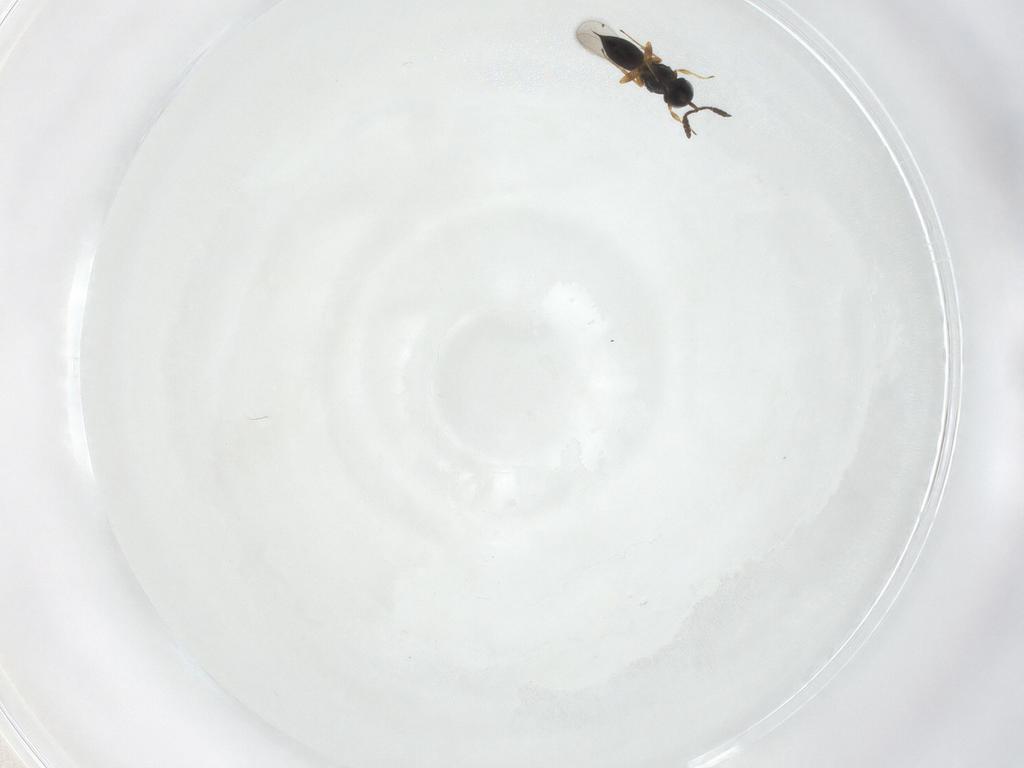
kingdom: Animalia
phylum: Arthropoda
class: Insecta
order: Hymenoptera
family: Scelionidae
